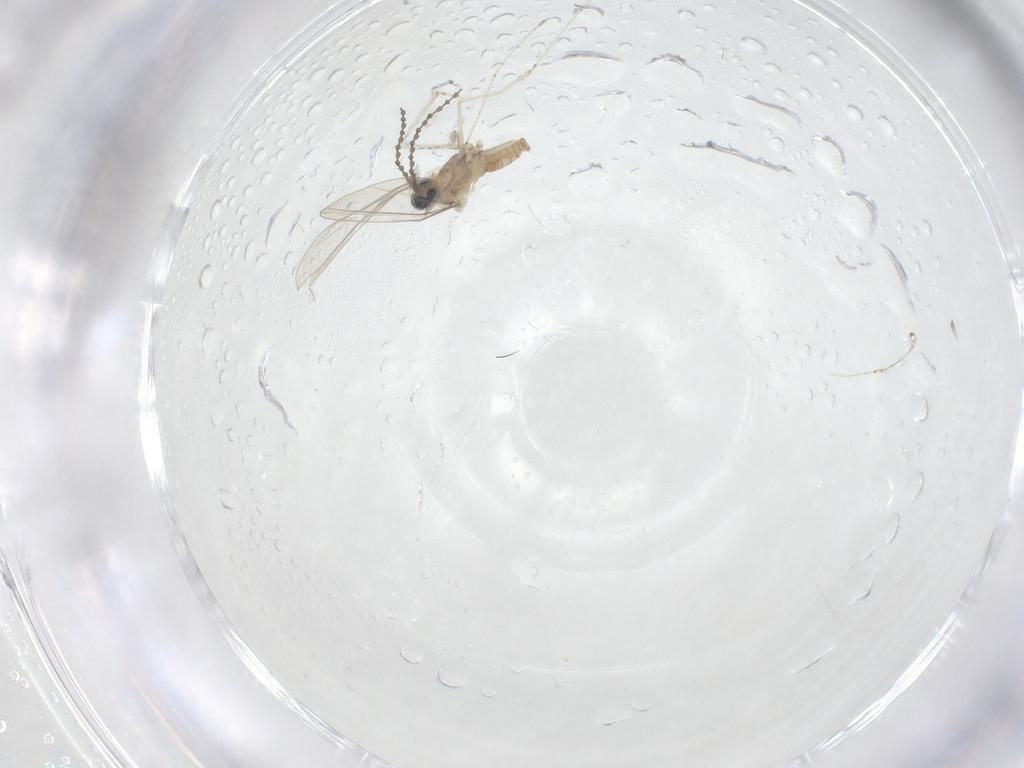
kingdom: Animalia
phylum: Arthropoda
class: Insecta
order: Diptera
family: Cecidomyiidae
